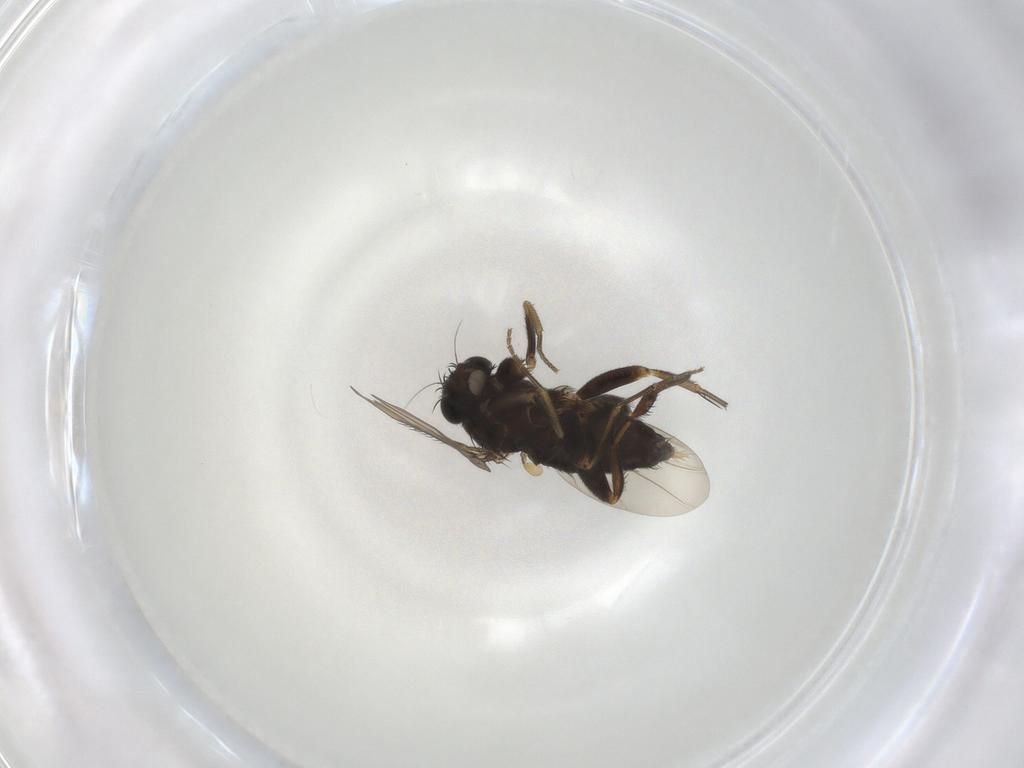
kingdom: Animalia
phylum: Arthropoda
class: Insecta
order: Diptera
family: Phoridae
